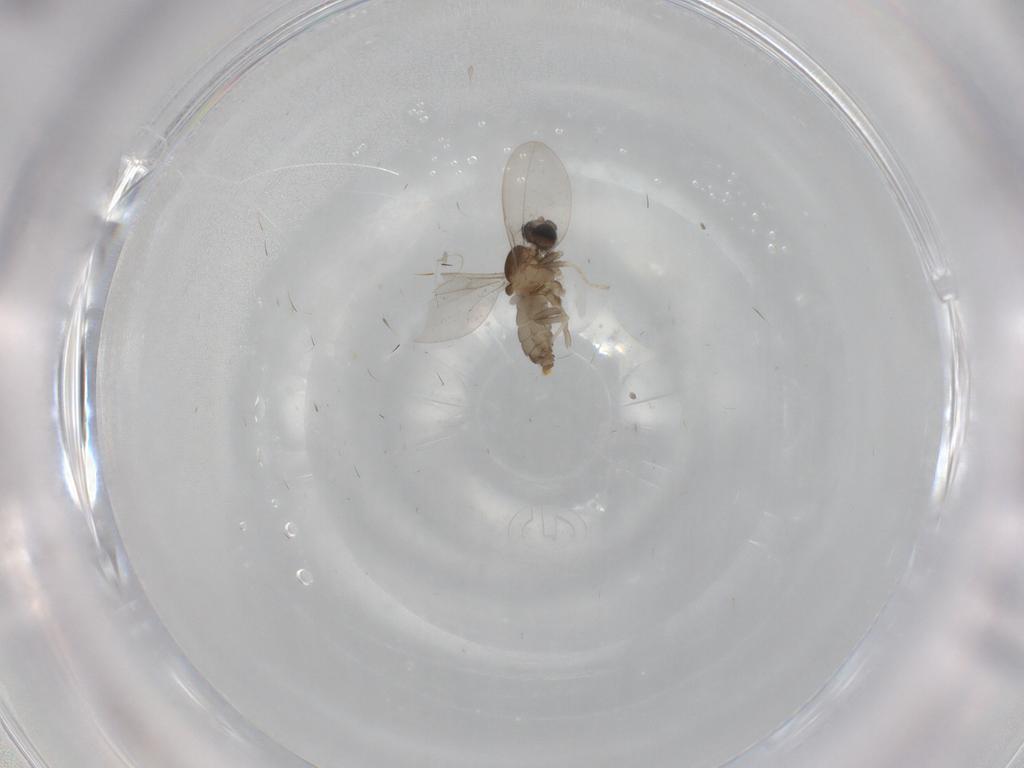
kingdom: Animalia
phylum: Arthropoda
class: Insecta
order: Diptera
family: Cecidomyiidae
